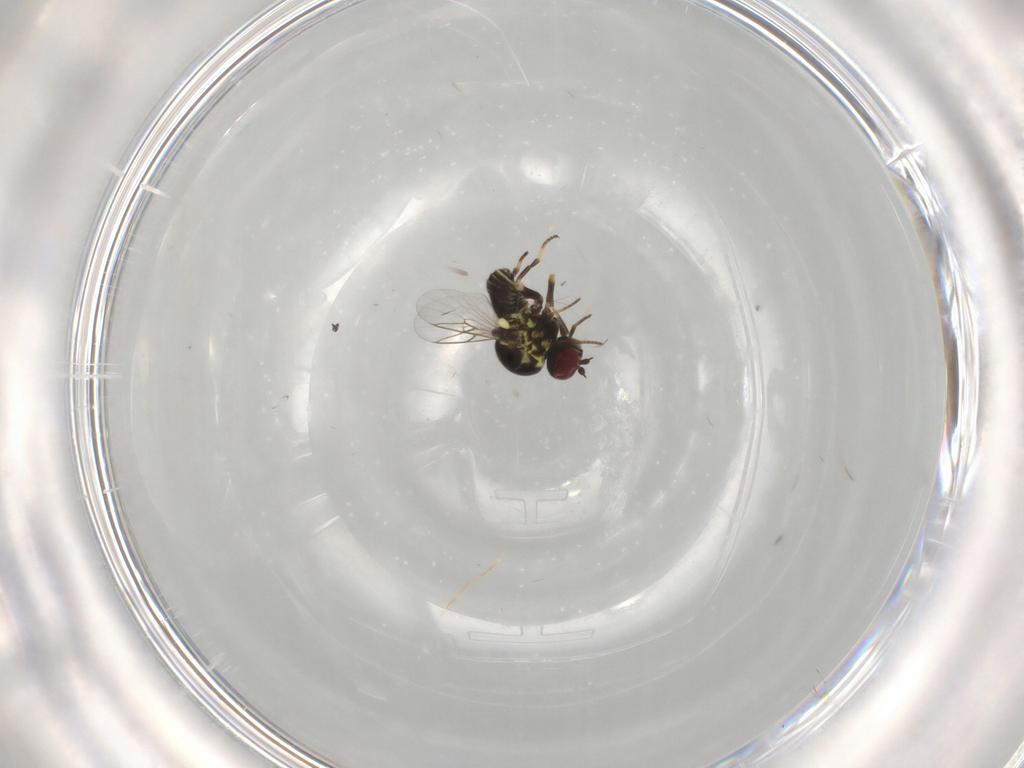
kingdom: Animalia
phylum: Arthropoda
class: Insecta
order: Diptera
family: Mythicomyiidae
